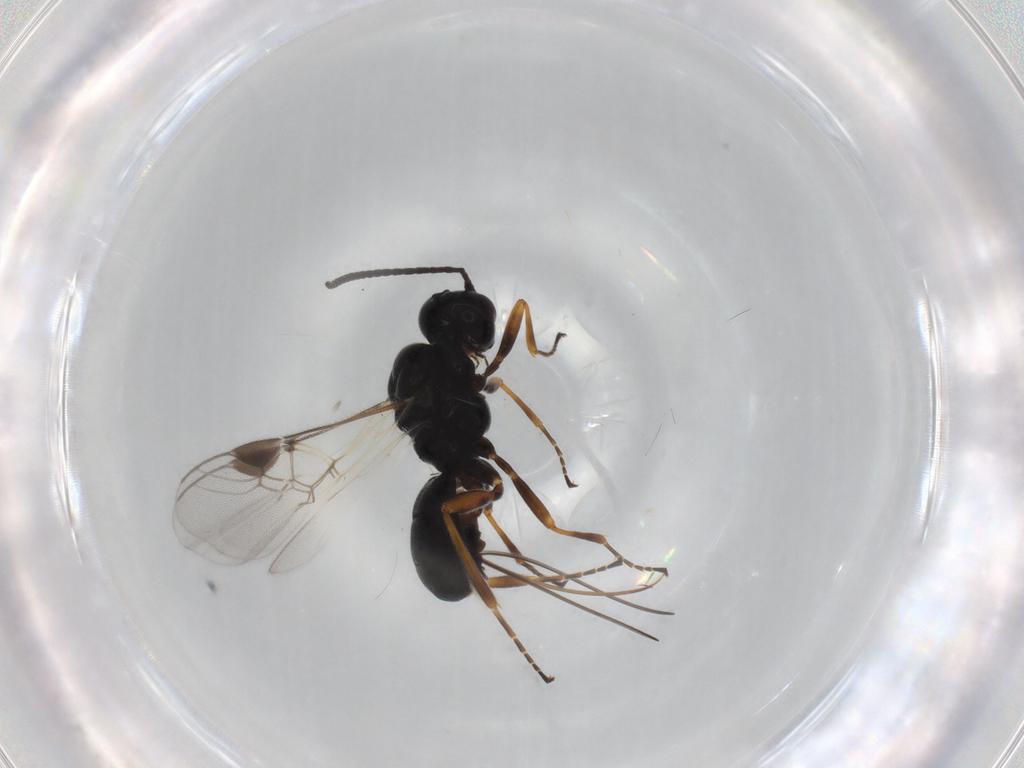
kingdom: Animalia
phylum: Arthropoda
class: Insecta
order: Hymenoptera
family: Braconidae
